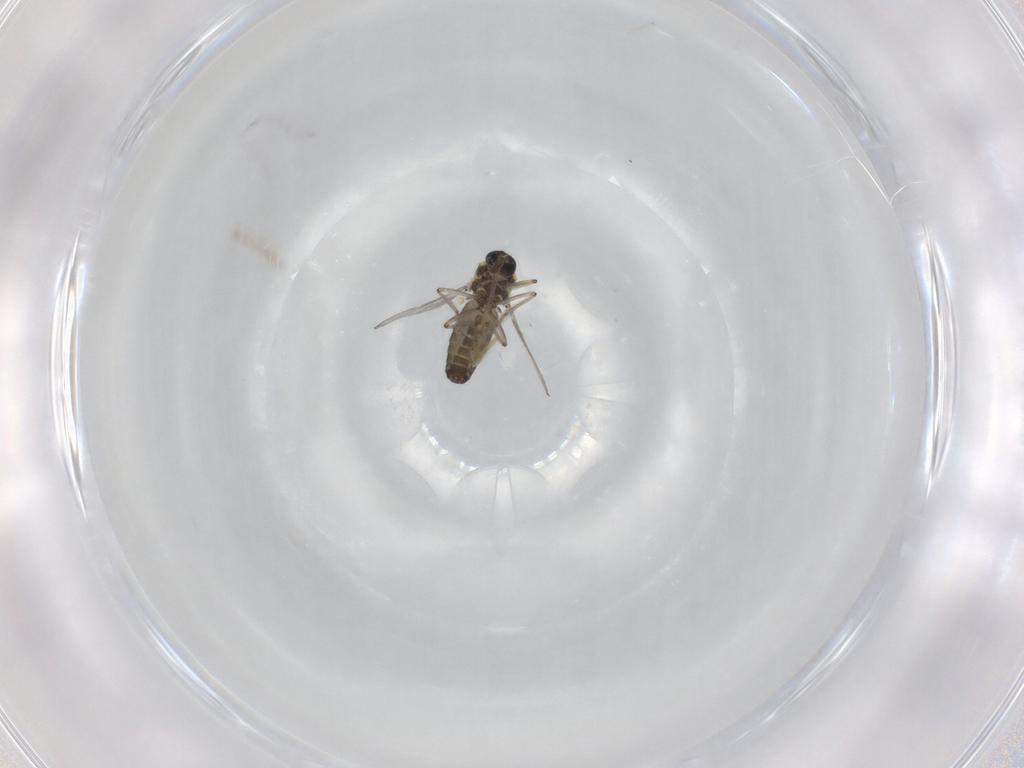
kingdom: Animalia
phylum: Arthropoda
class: Insecta
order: Diptera
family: Ceratopogonidae
